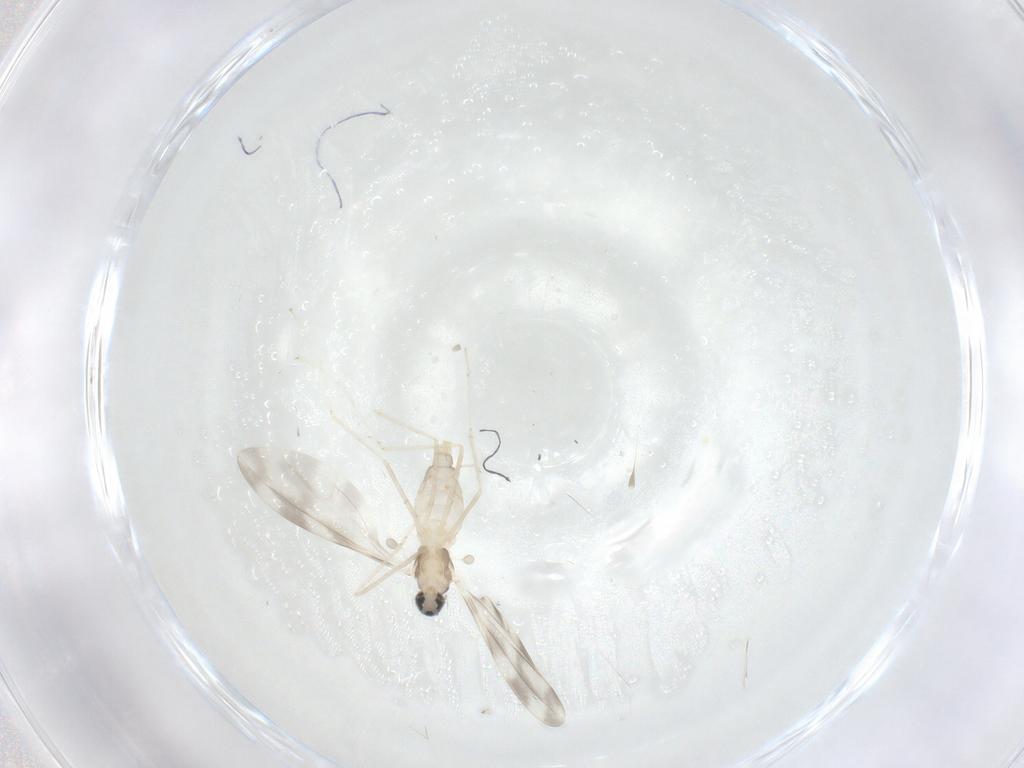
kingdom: Animalia
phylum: Arthropoda
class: Insecta
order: Diptera
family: Cecidomyiidae
